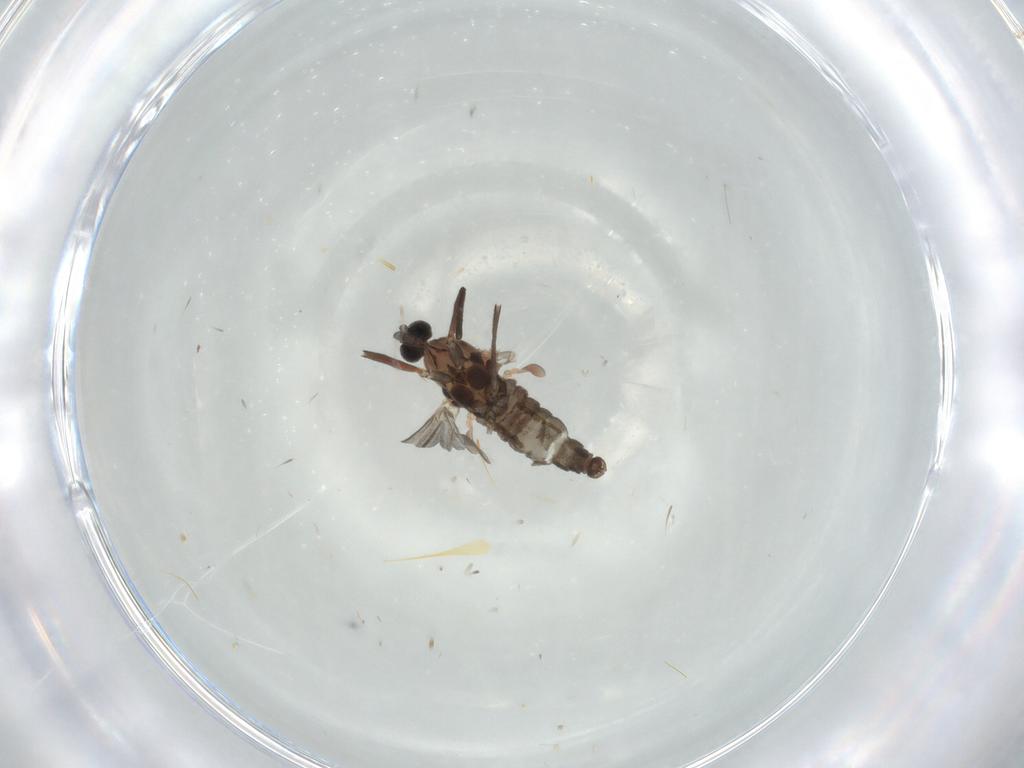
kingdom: Animalia
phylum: Arthropoda
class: Insecta
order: Diptera
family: Cecidomyiidae
